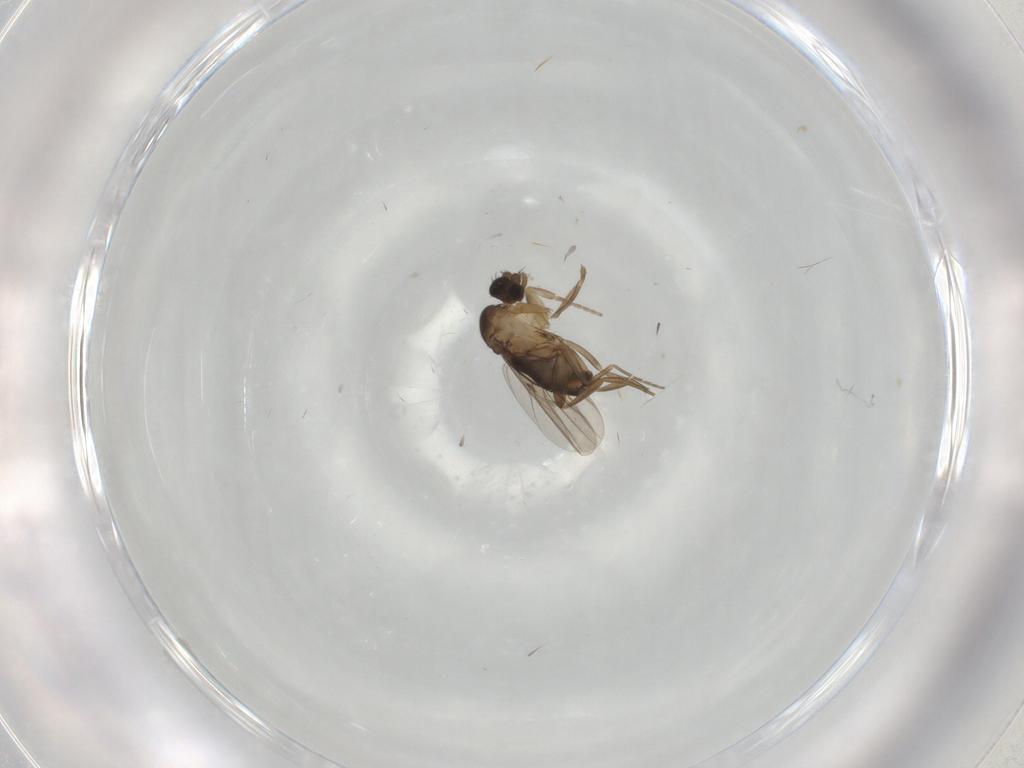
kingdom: Animalia
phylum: Arthropoda
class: Insecta
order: Diptera
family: Phoridae
